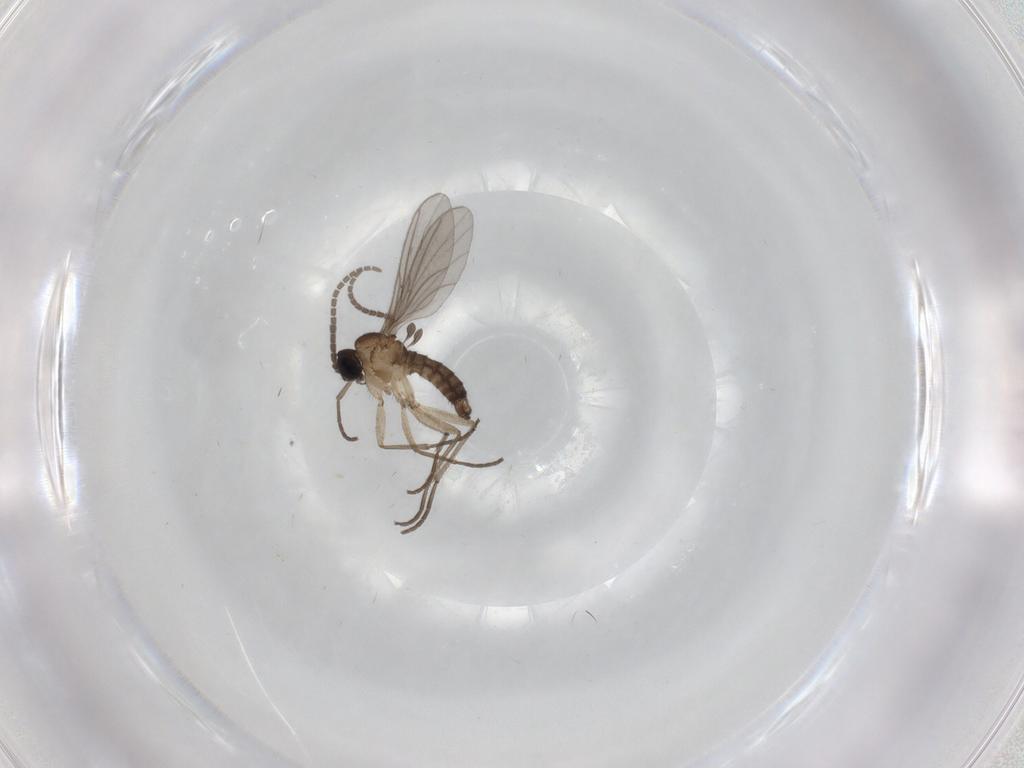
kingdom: Animalia
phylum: Arthropoda
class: Insecta
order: Diptera
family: Sciaridae
